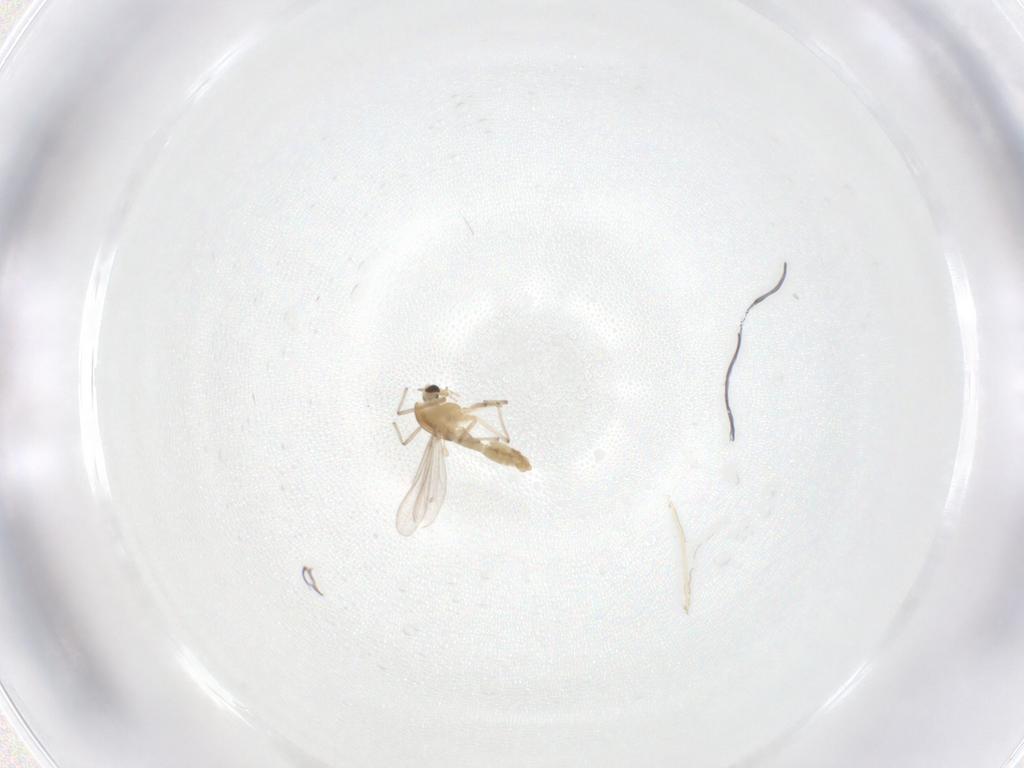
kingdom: Animalia
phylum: Arthropoda
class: Insecta
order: Diptera
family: Chironomidae
